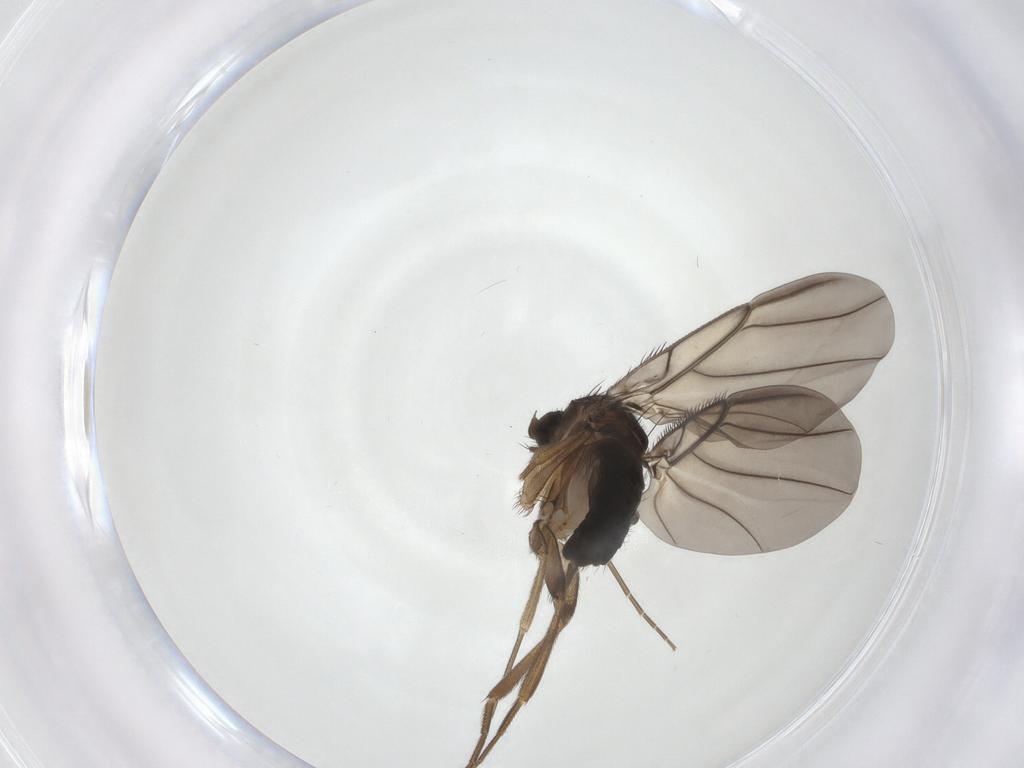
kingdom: Animalia
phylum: Arthropoda
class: Insecta
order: Diptera
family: Phoridae
